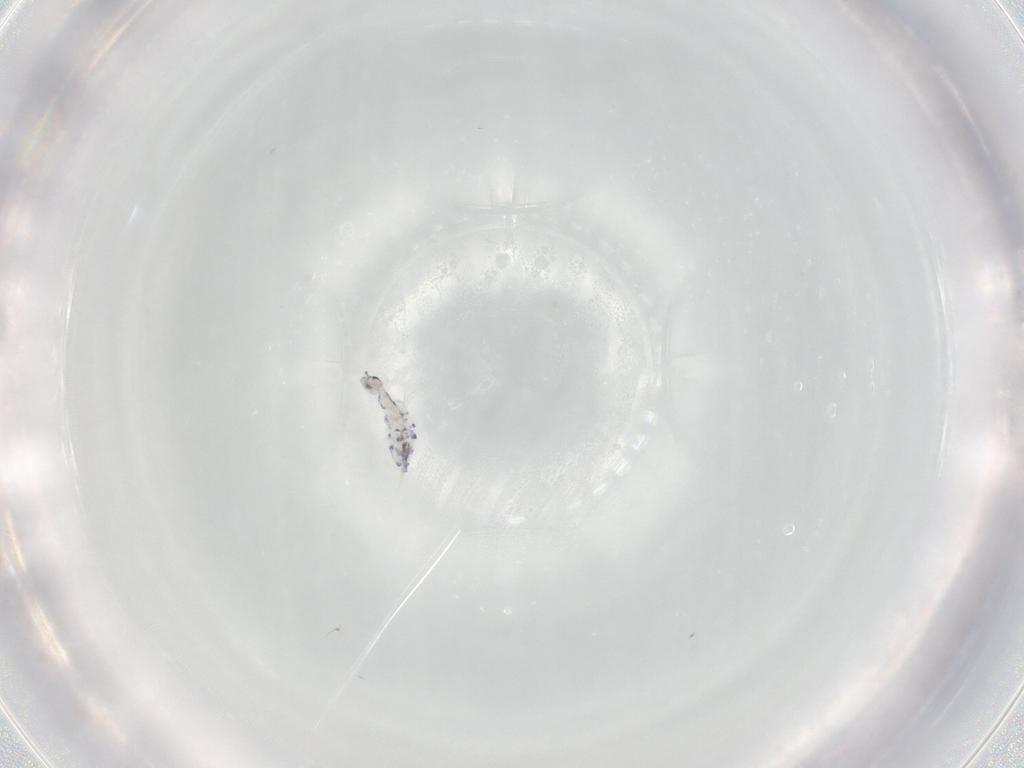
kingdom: Animalia
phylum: Arthropoda
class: Collembola
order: Entomobryomorpha
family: Entomobryidae
